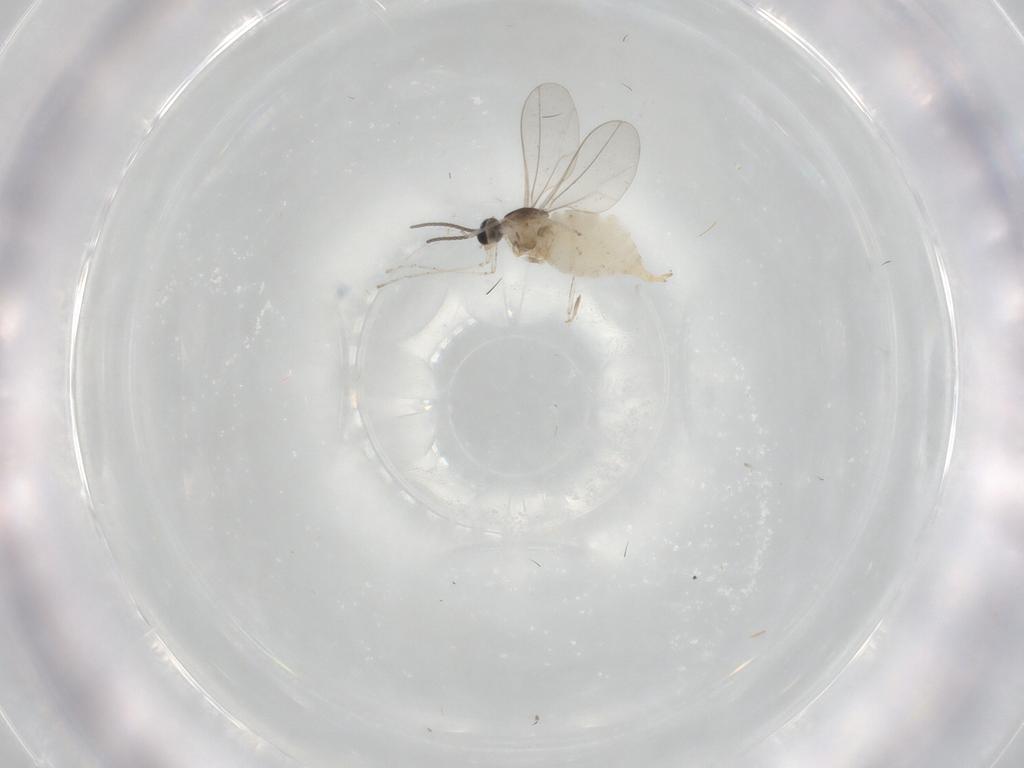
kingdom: Animalia
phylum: Arthropoda
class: Insecta
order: Diptera
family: Cecidomyiidae
